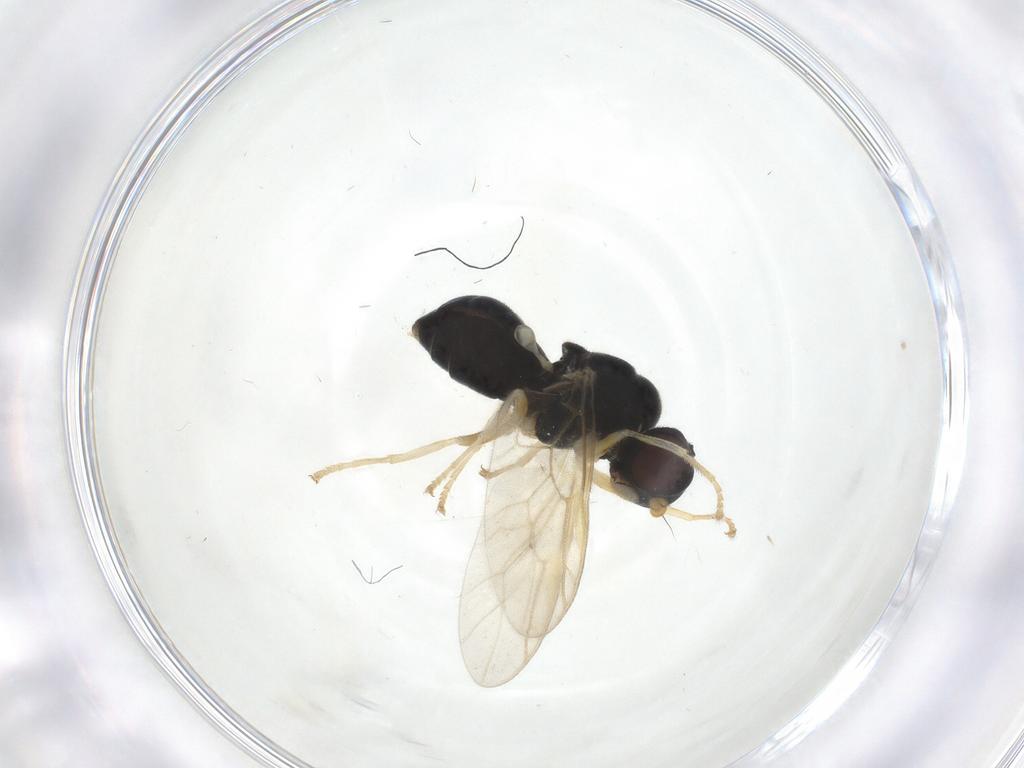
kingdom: Animalia
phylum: Arthropoda
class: Insecta
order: Diptera
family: Stratiomyidae
